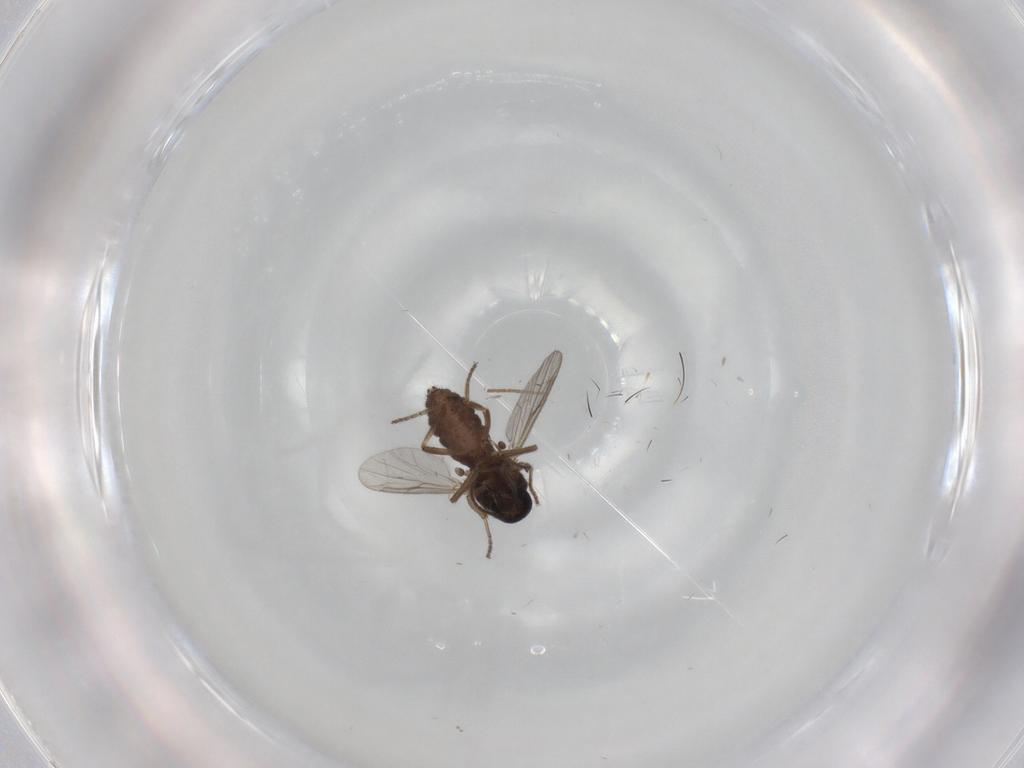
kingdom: Animalia
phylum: Arthropoda
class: Insecta
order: Diptera
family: Ceratopogonidae
